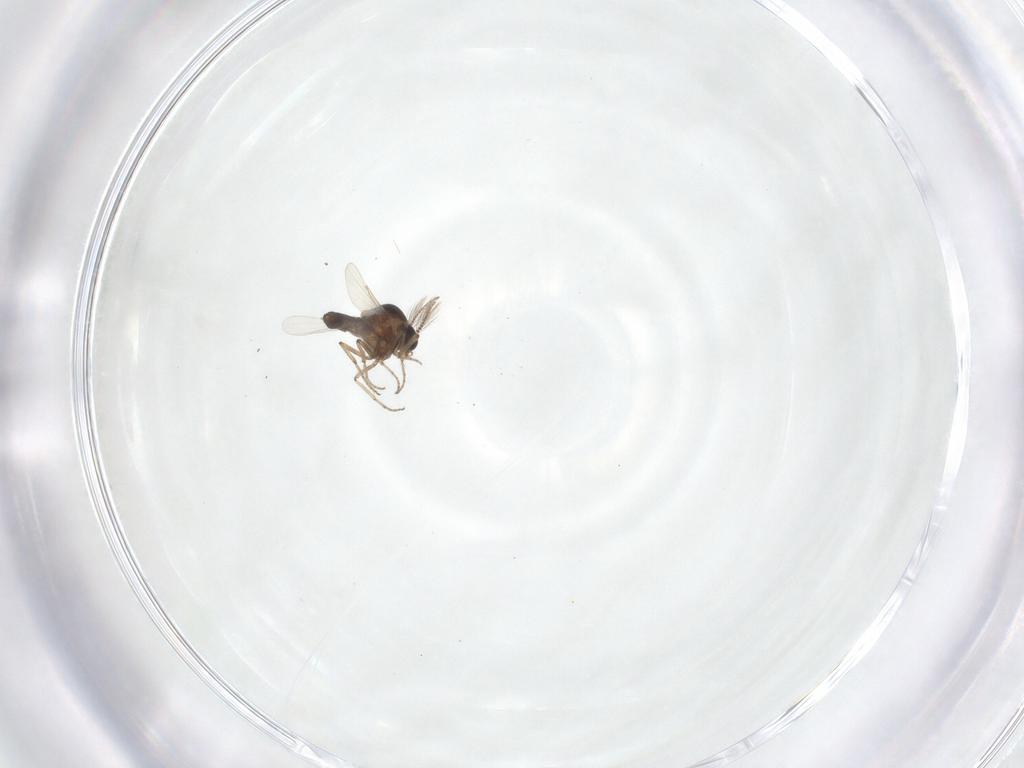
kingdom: Animalia
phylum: Arthropoda
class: Insecta
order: Diptera
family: Ceratopogonidae
